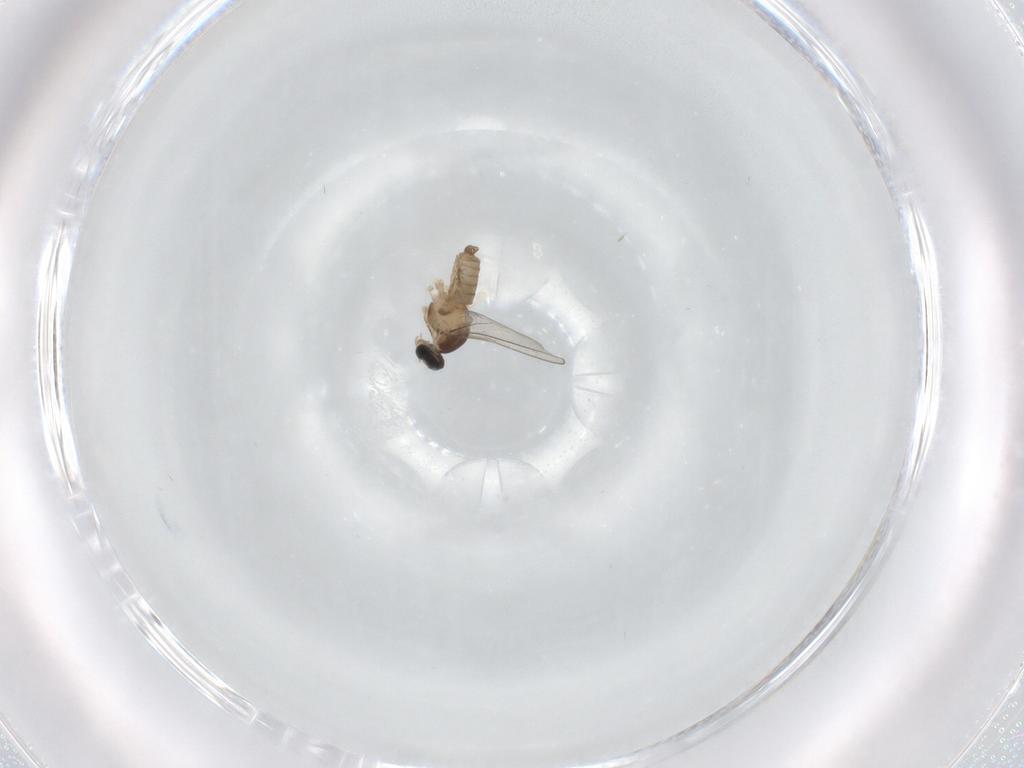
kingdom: Animalia
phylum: Arthropoda
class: Insecta
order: Diptera
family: Cecidomyiidae
